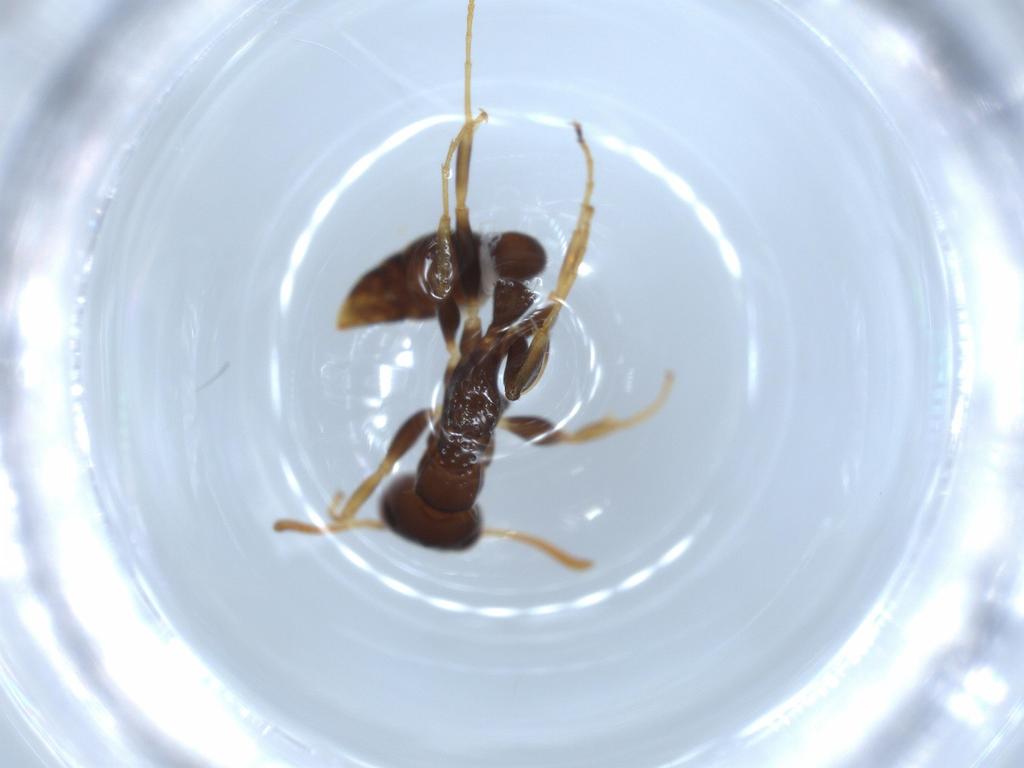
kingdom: Animalia
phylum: Arthropoda
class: Insecta
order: Hymenoptera
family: Formicidae
